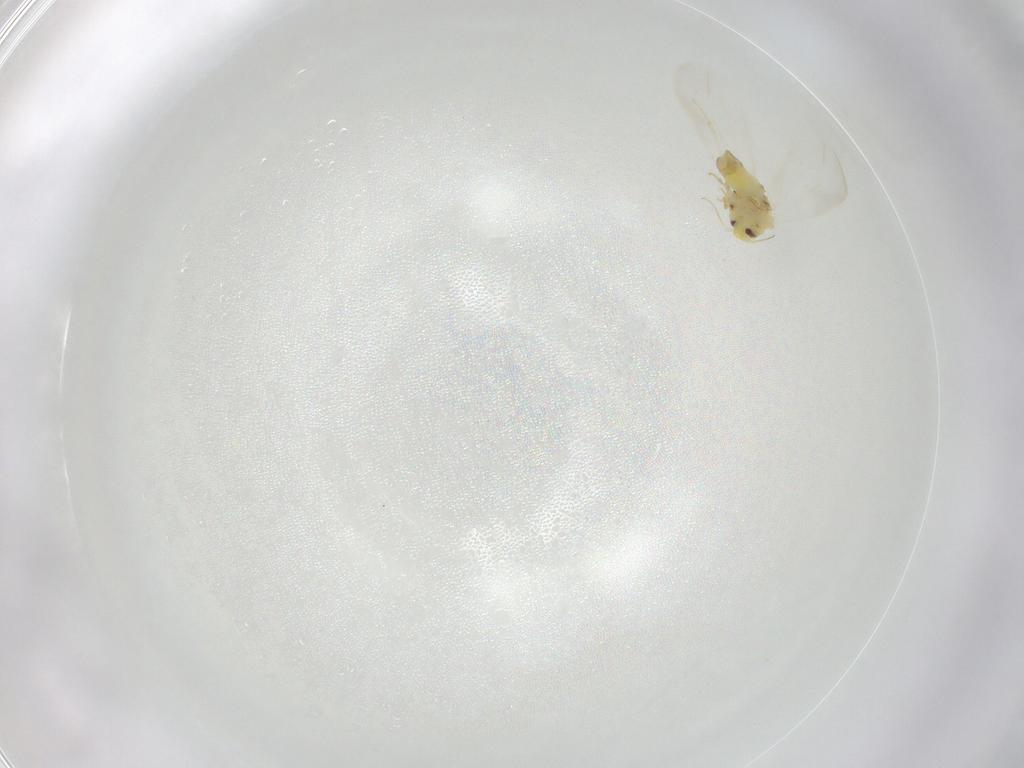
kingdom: Animalia
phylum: Arthropoda
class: Insecta
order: Hemiptera
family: Aleyrodidae
